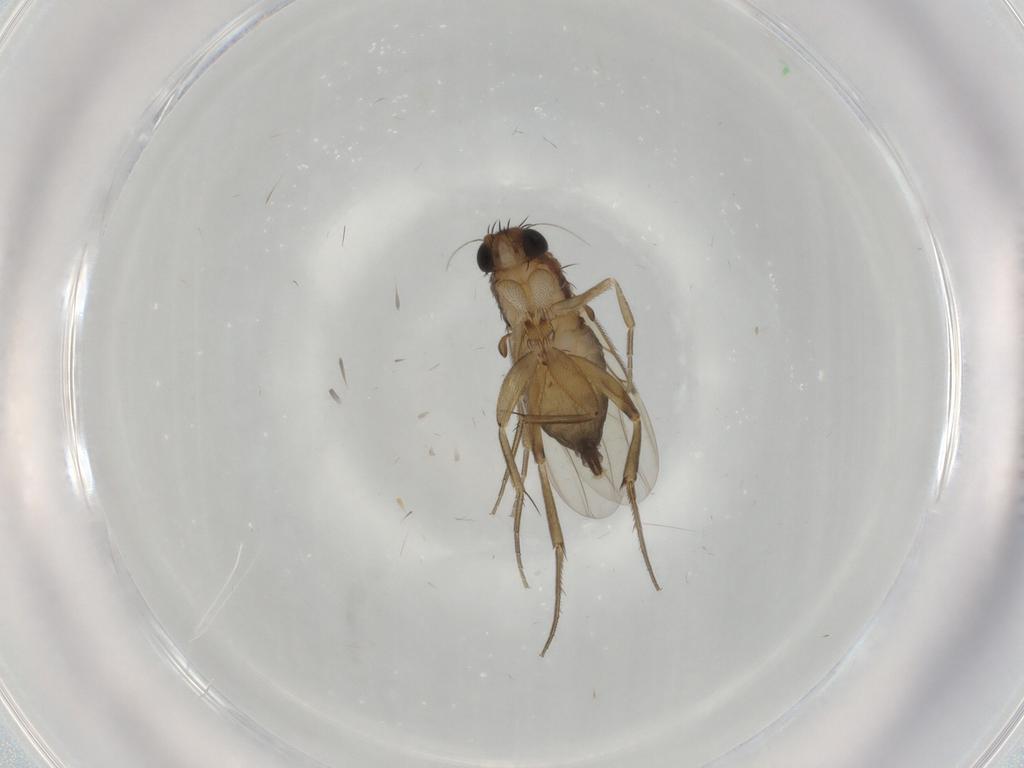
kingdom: Animalia
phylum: Arthropoda
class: Insecta
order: Diptera
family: Phoridae
